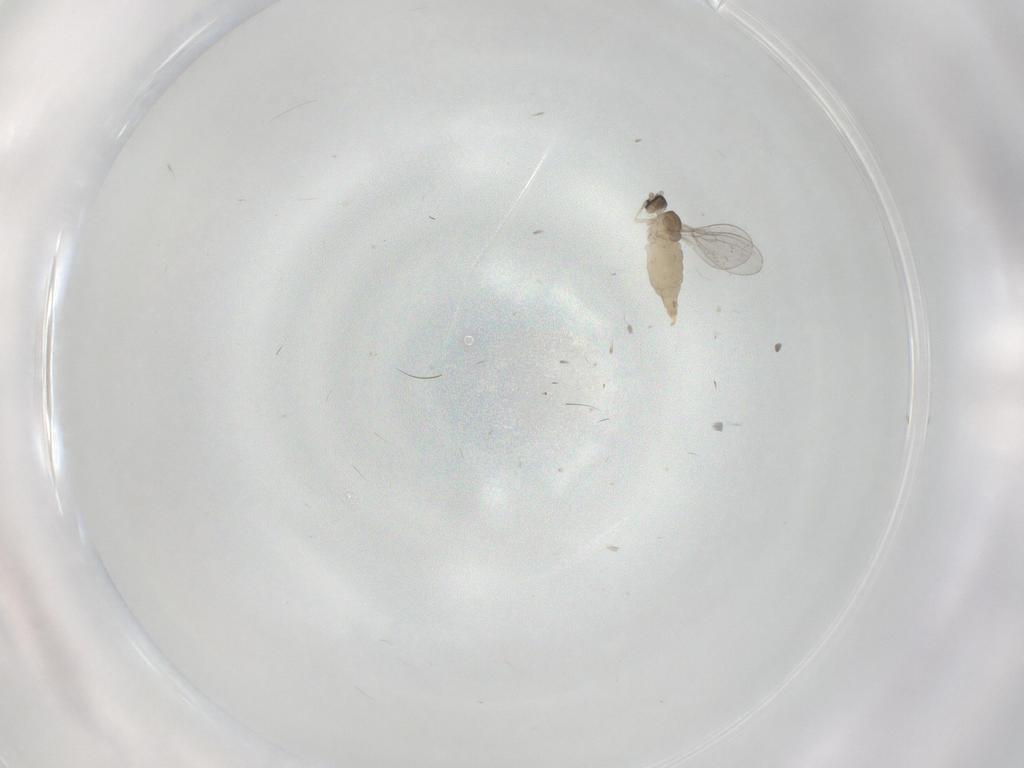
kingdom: Animalia
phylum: Arthropoda
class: Insecta
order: Diptera
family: Cecidomyiidae
